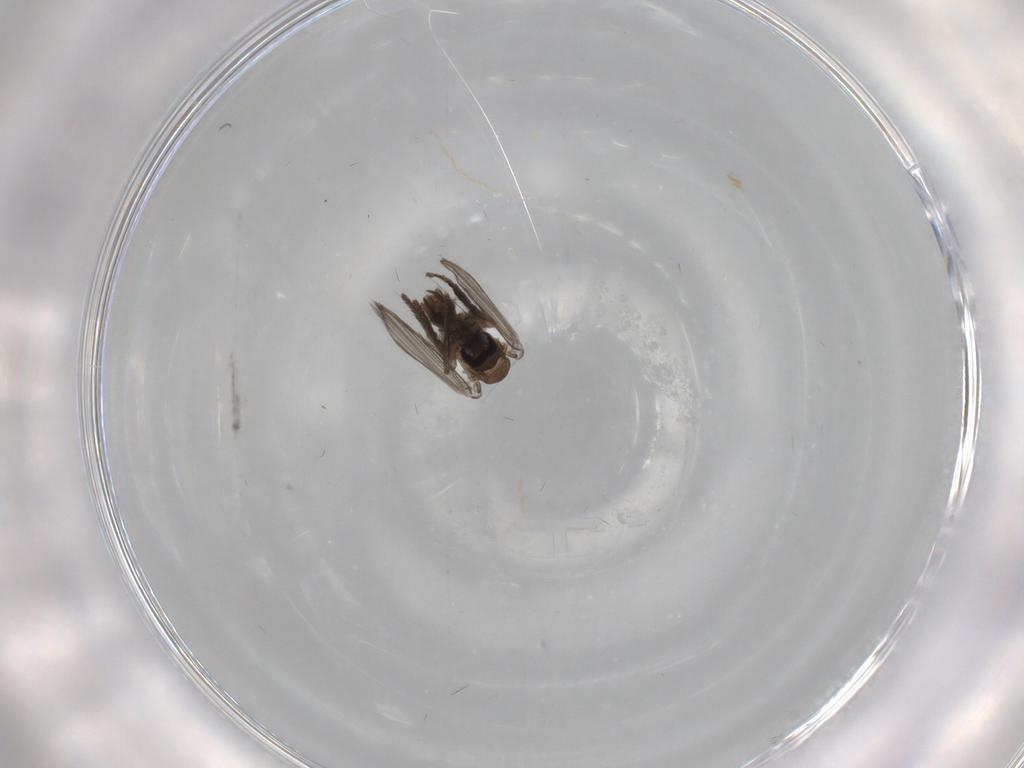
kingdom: Animalia
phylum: Arthropoda
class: Insecta
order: Diptera
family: Psychodidae
